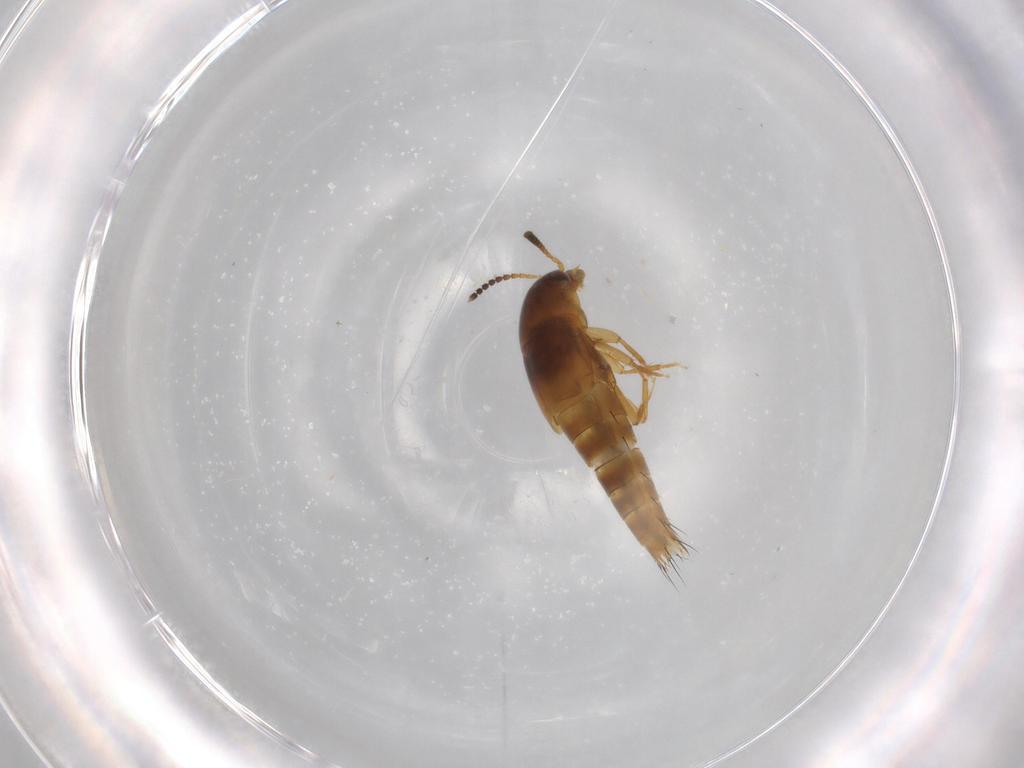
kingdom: Animalia
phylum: Arthropoda
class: Insecta
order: Coleoptera
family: Staphylinidae
